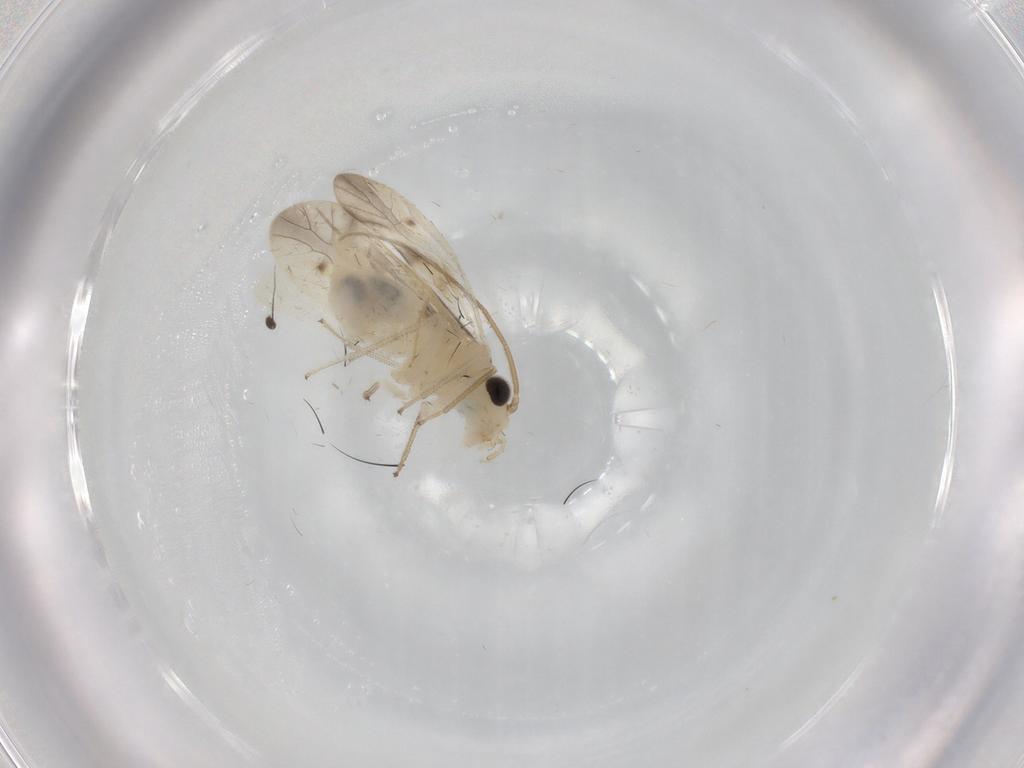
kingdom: Animalia
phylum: Arthropoda
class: Insecta
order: Psocodea
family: Caeciliusidae
